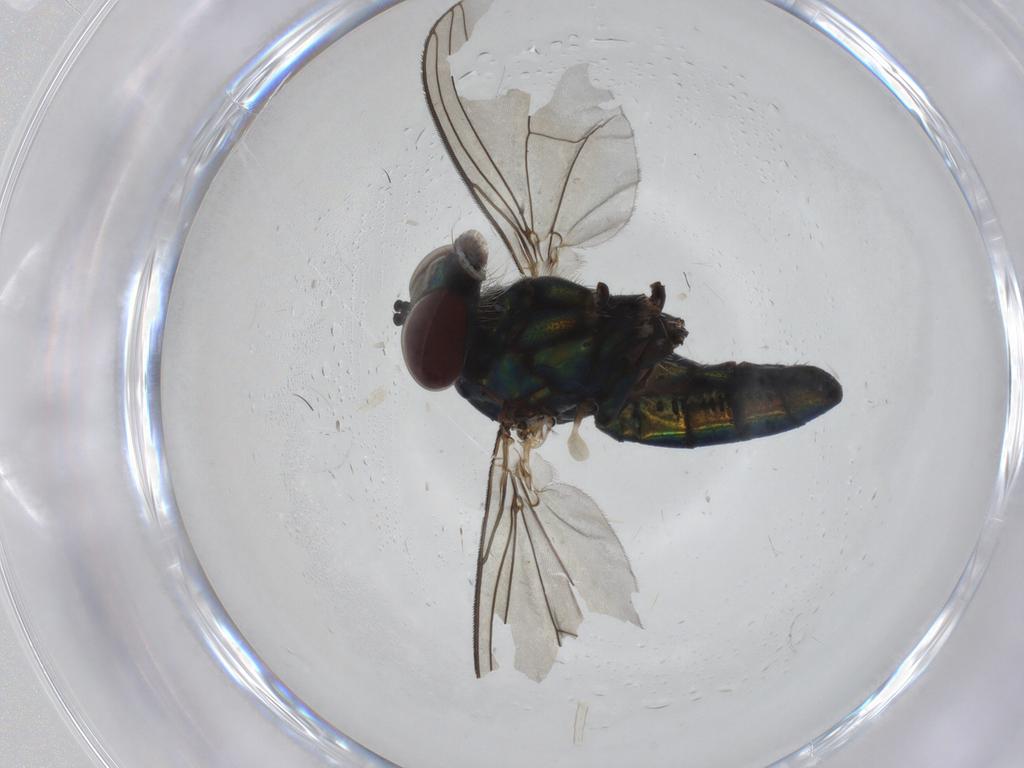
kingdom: Animalia
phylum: Arthropoda
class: Insecta
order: Diptera
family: Dolichopodidae
